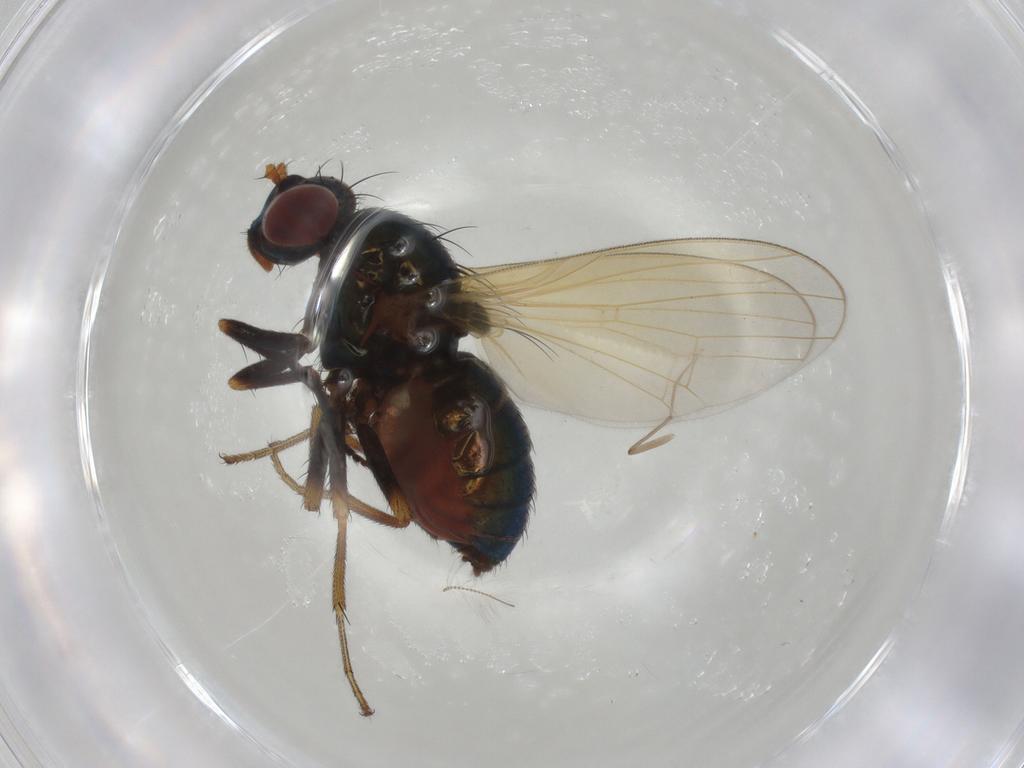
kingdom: Animalia
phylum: Arthropoda
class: Insecta
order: Diptera
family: Lauxaniidae
